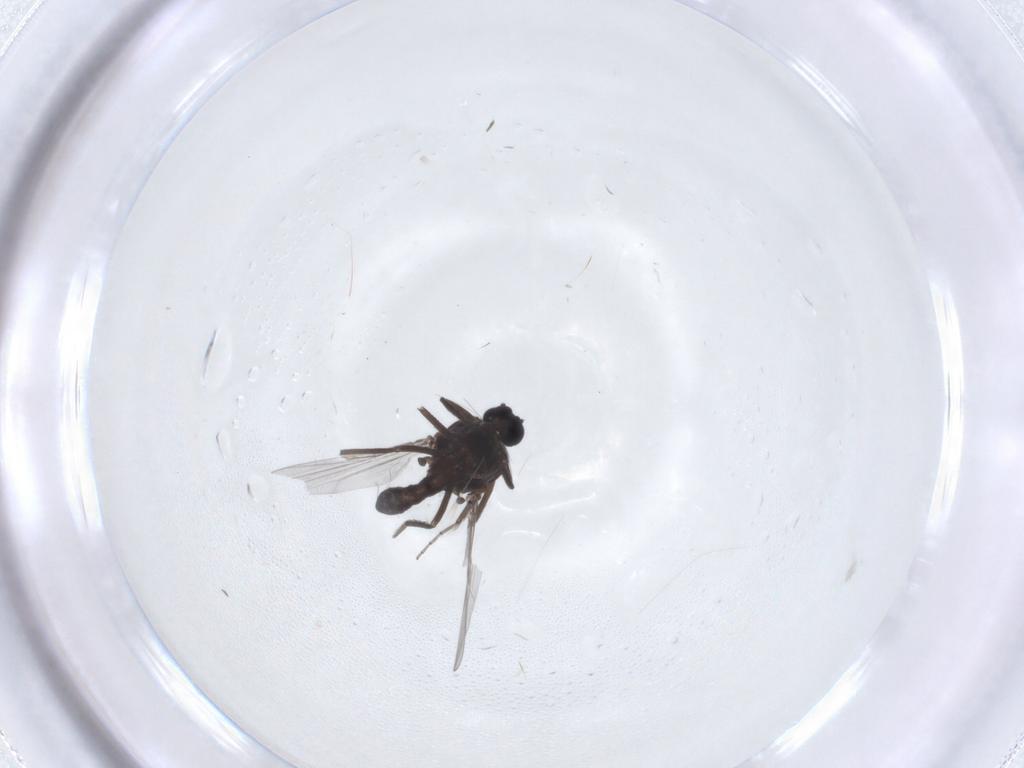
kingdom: Animalia
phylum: Arthropoda
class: Insecta
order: Diptera
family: Ceratopogonidae
